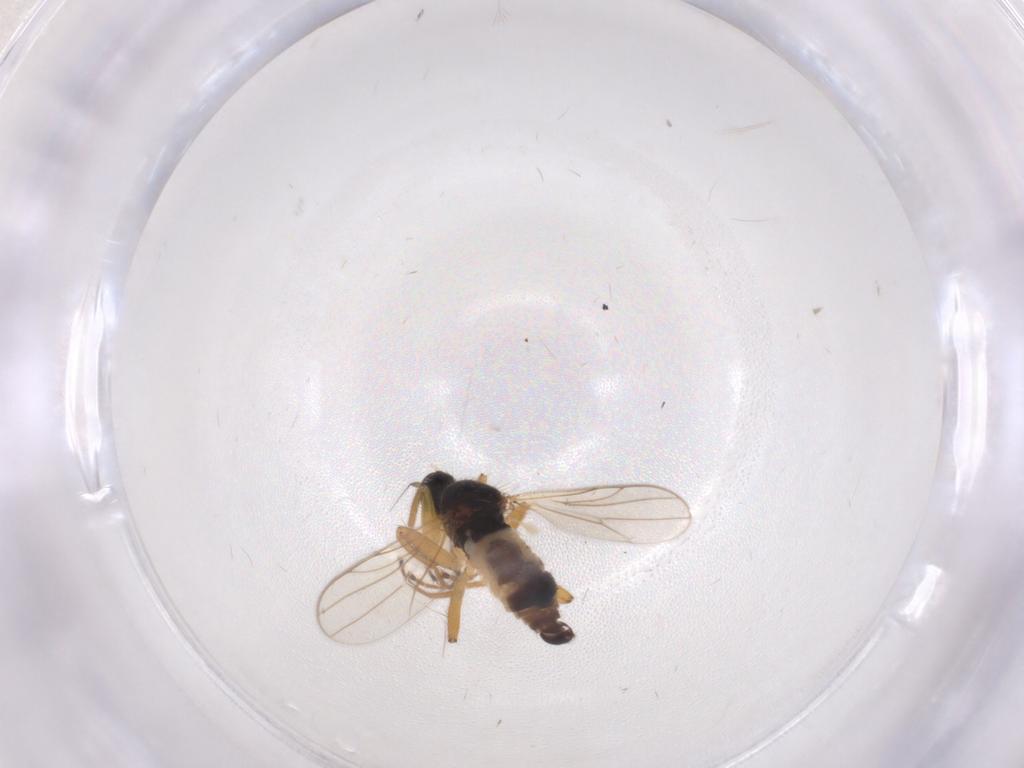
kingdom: Animalia
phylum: Arthropoda
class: Insecta
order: Diptera
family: Hybotidae
